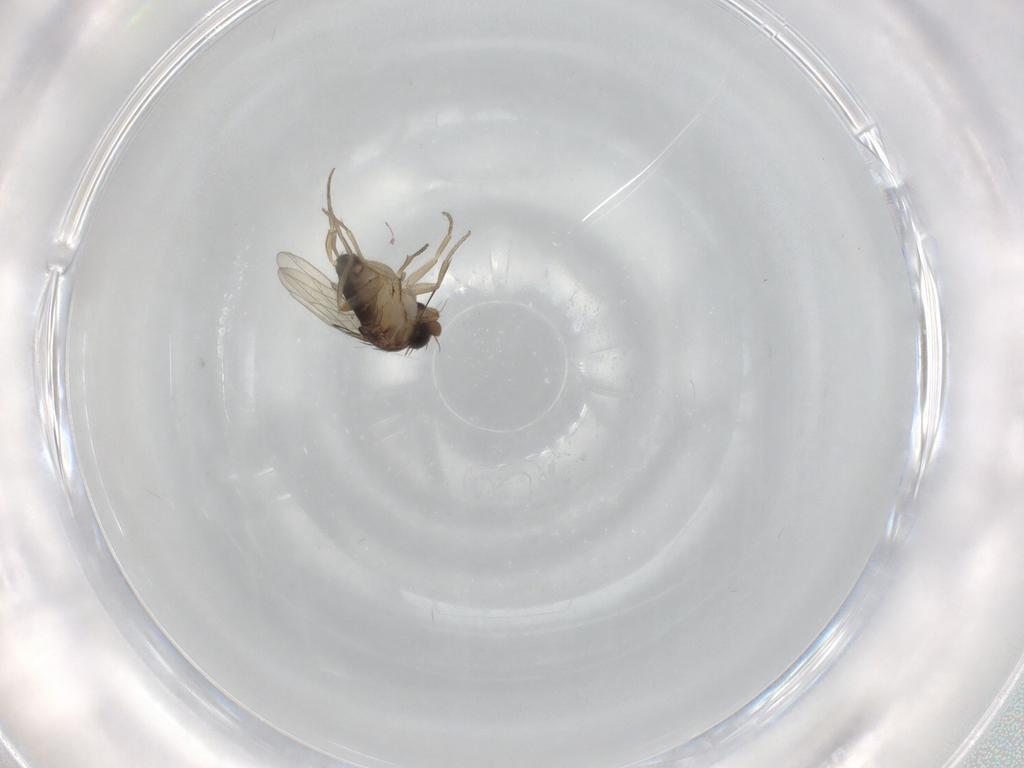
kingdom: Animalia
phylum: Arthropoda
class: Insecta
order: Diptera
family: Phoridae
